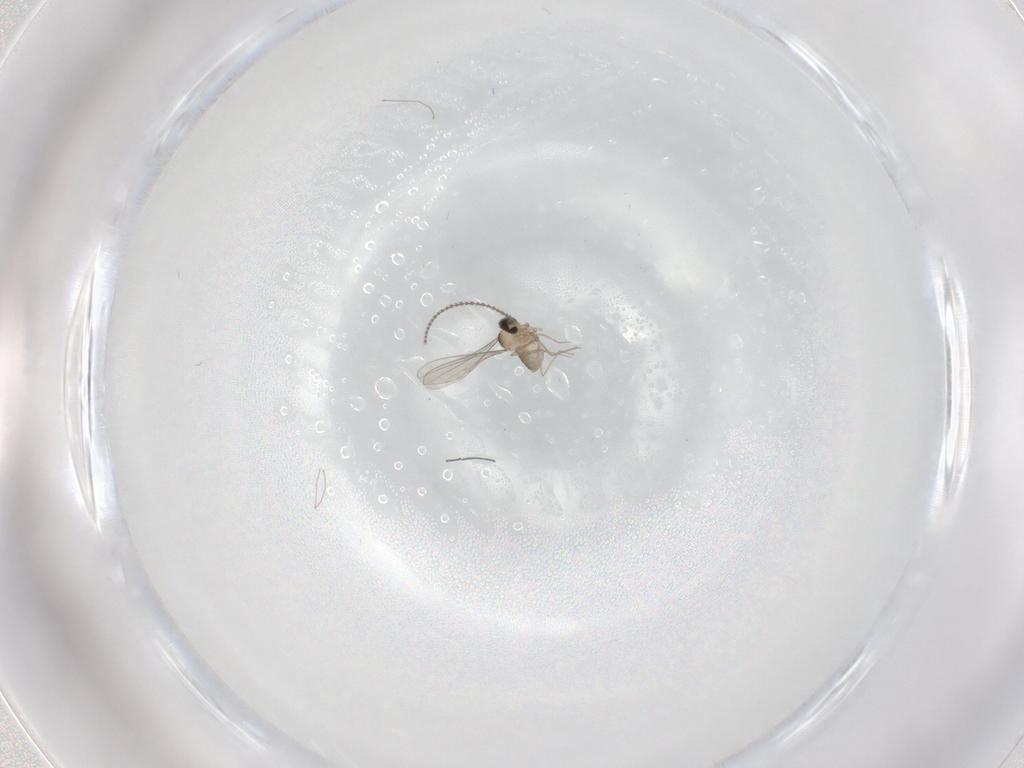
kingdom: Animalia
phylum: Arthropoda
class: Insecta
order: Diptera
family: Cecidomyiidae
